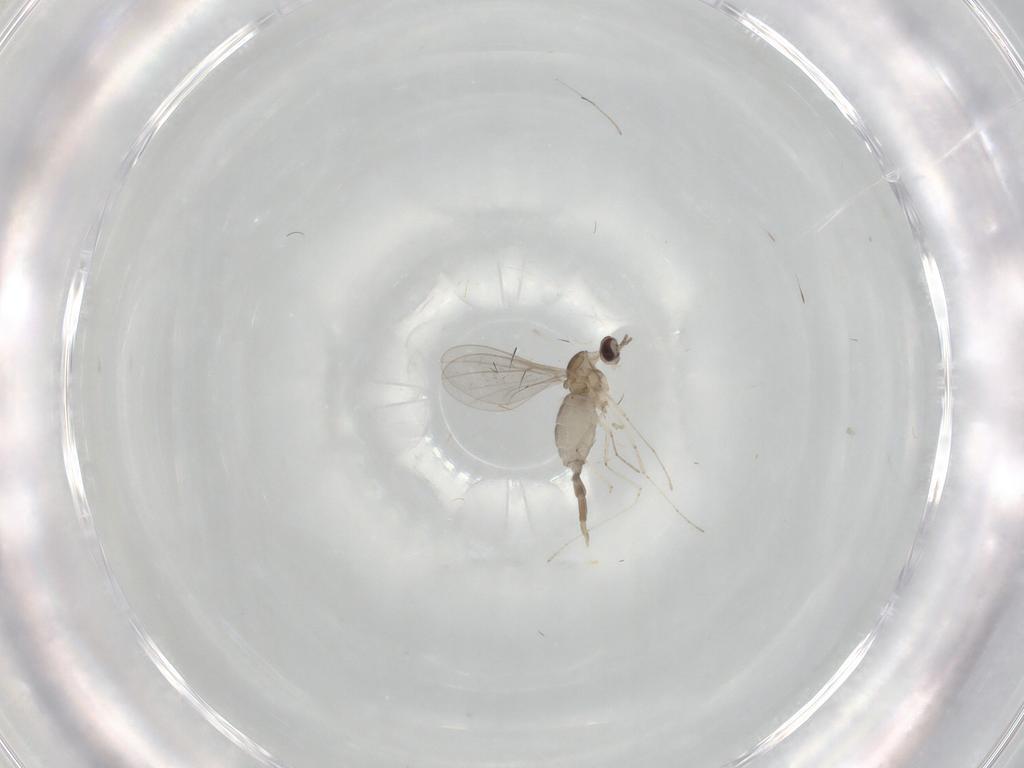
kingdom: Animalia
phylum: Arthropoda
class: Insecta
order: Diptera
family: Cecidomyiidae
